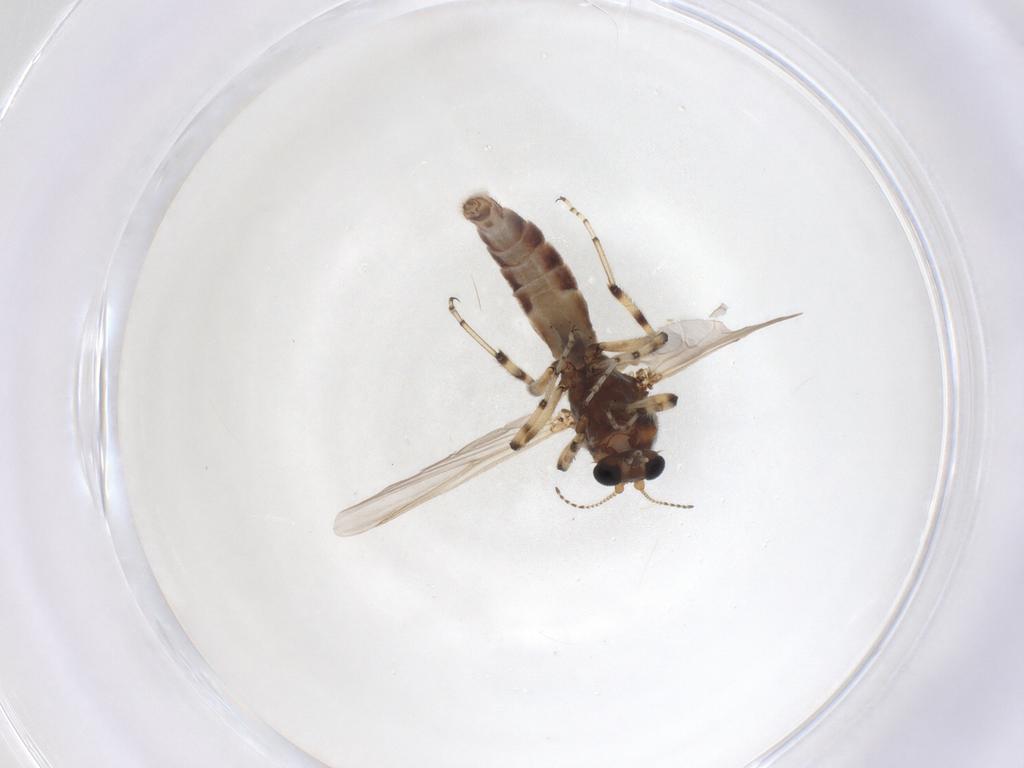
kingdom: Animalia
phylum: Arthropoda
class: Insecta
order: Diptera
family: Ceratopogonidae
